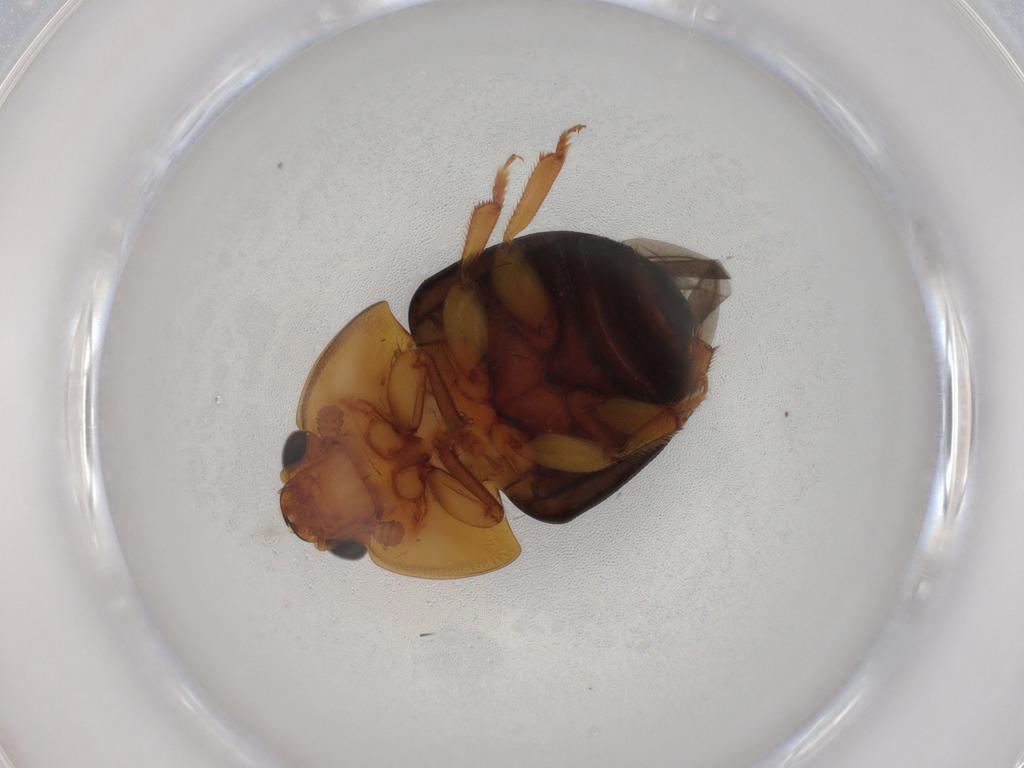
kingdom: Animalia
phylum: Arthropoda
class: Insecta
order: Coleoptera
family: Nitidulidae
